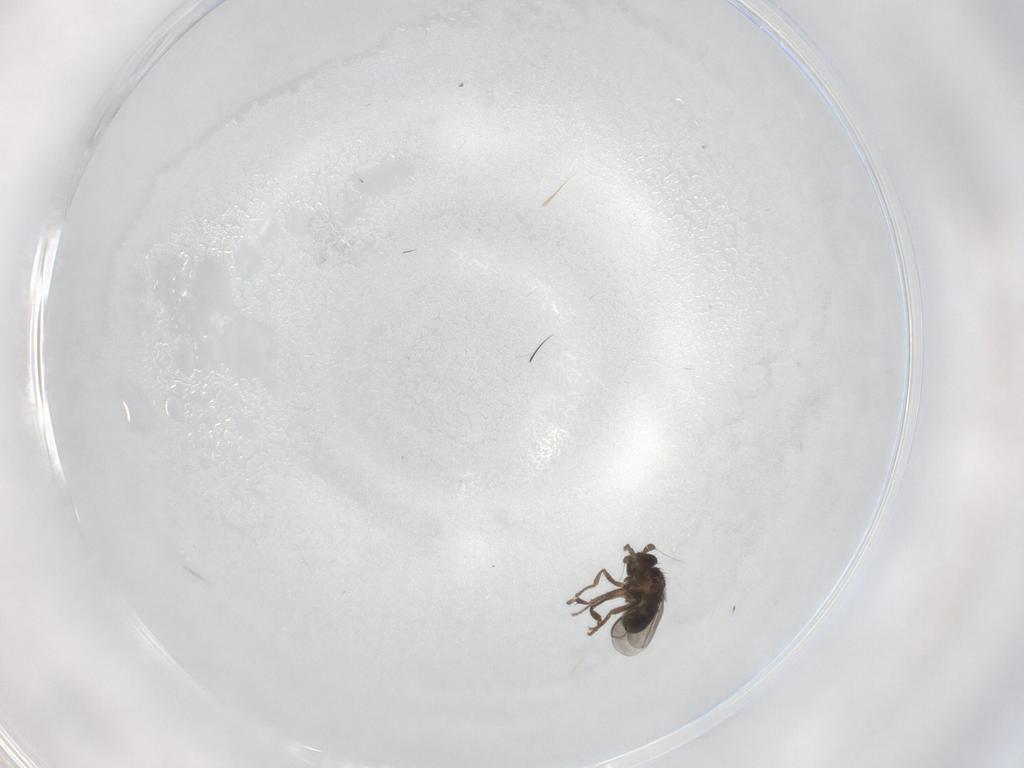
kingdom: Animalia
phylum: Arthropoda
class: Insecta
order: Diptera
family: Sphaeroceridae
